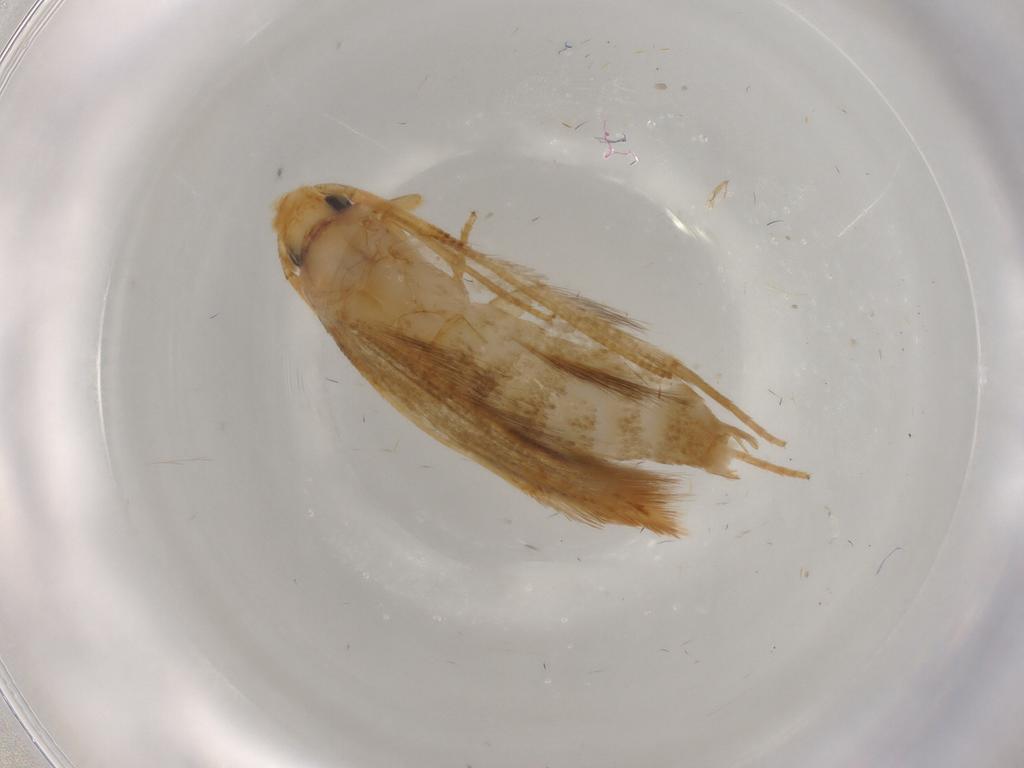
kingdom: Animalia
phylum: Arthropoda
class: Insecta
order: Lepidoptera
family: Tineidae
